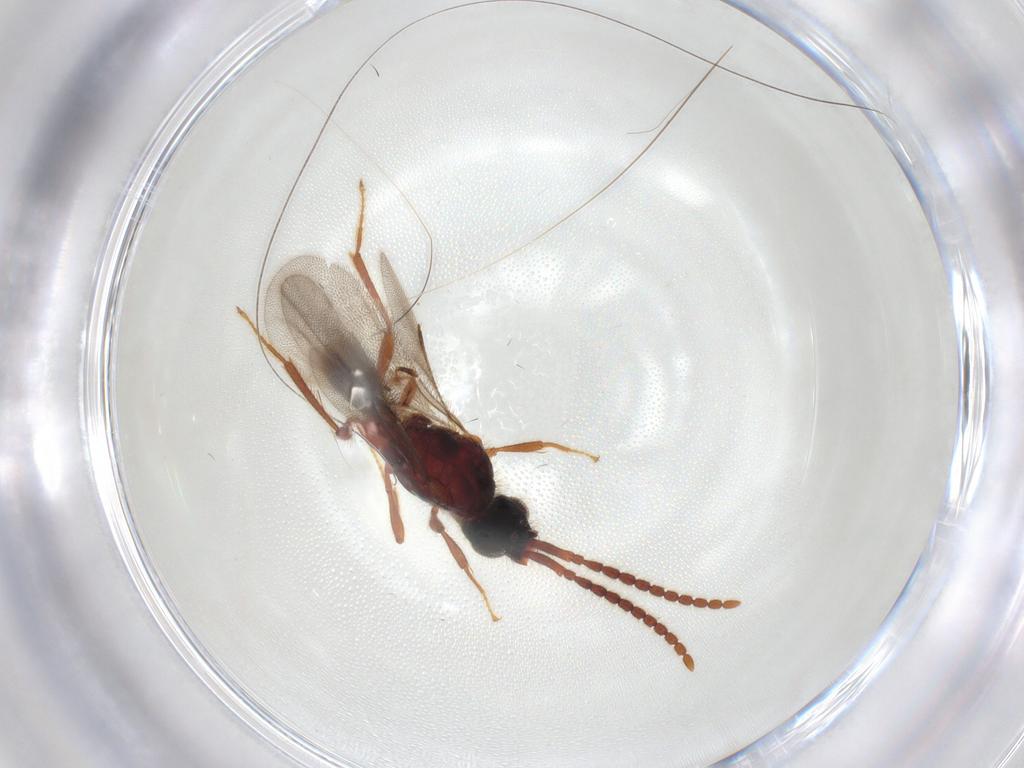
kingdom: Animalia
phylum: Arthropoda
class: Insecta
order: Hymenoptera
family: Diapriidae
